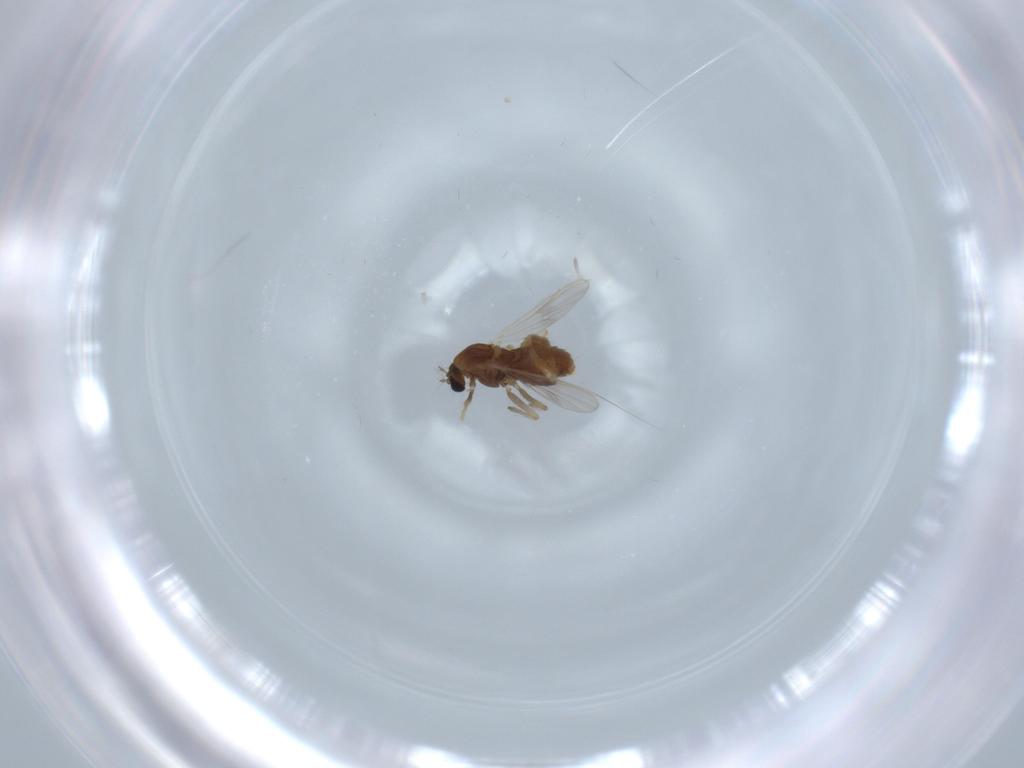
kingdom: Animalia
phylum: Arthropoda
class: Insecta
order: Diptera
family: Chironomidae
